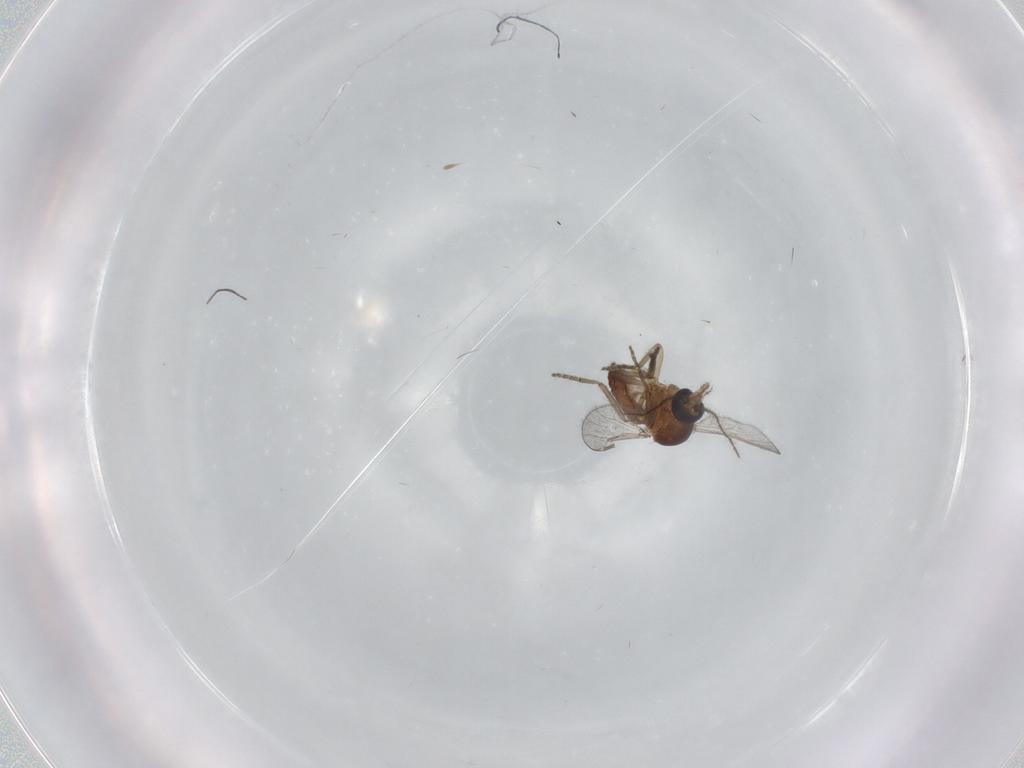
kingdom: Animalia
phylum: Arthropoda
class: Insecta
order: Diptera
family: Ceratopogonidae
